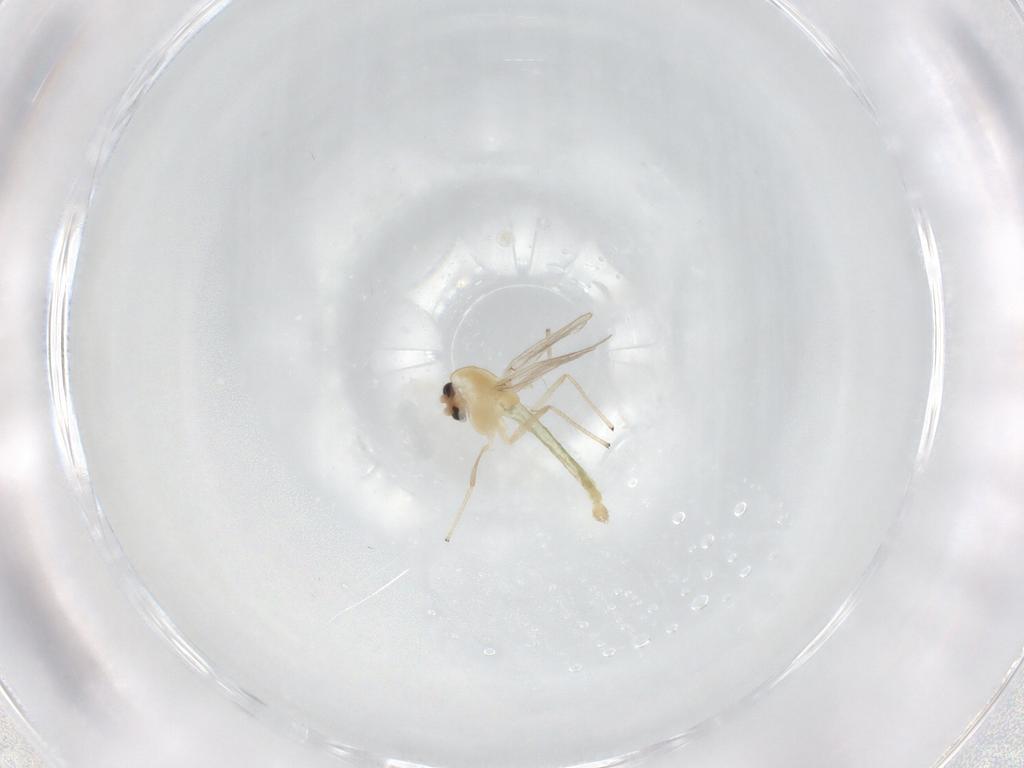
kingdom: Animalia
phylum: Arthropoda
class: Insecta
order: Diptera
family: Chironomidae
